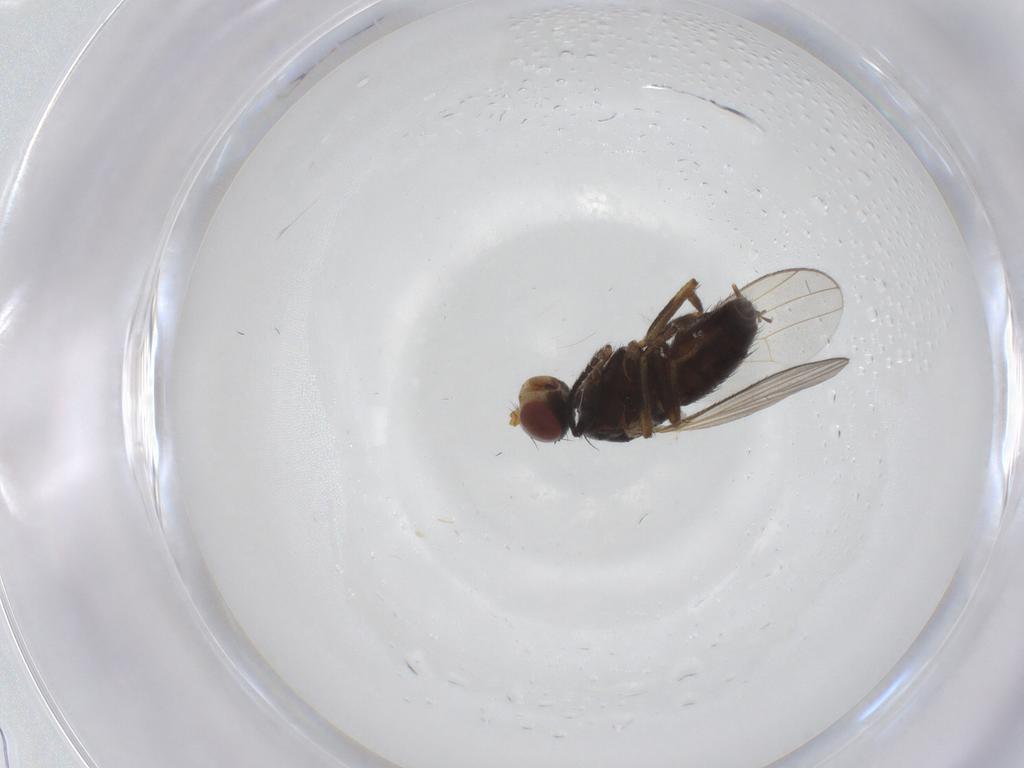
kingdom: Animalia
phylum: Arthropoda
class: Insecta
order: Diptera
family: Heleomyzidae
